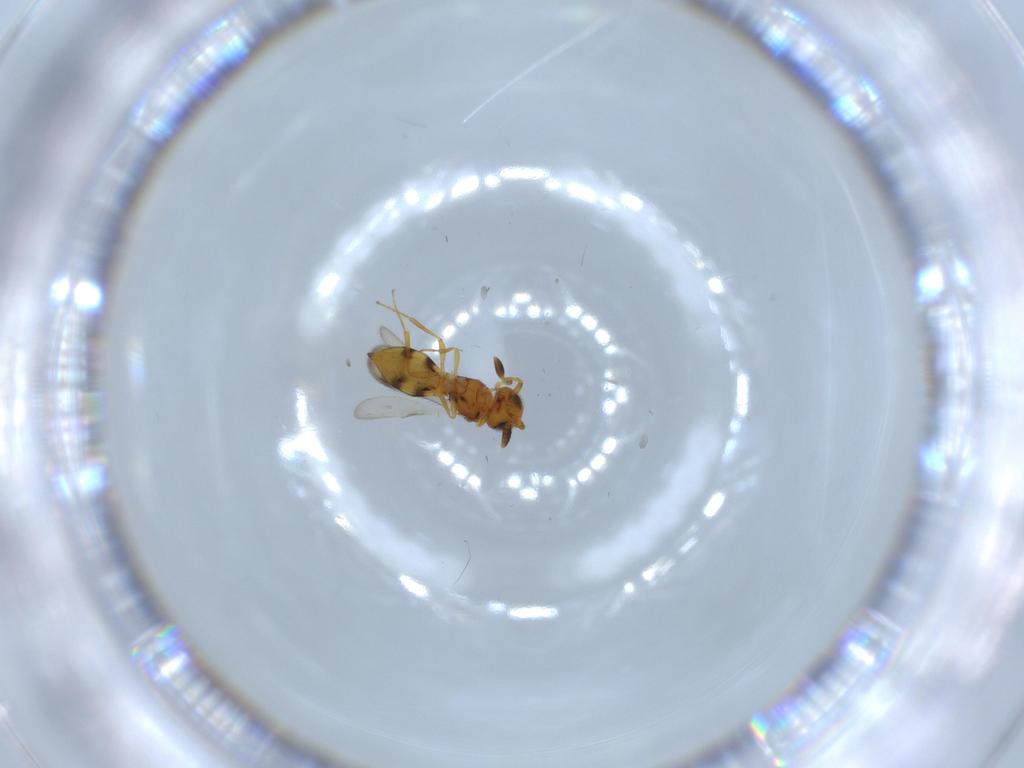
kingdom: Animalia
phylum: Arthropoda
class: Insecta
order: Hymenoptera
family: Scelionidae
